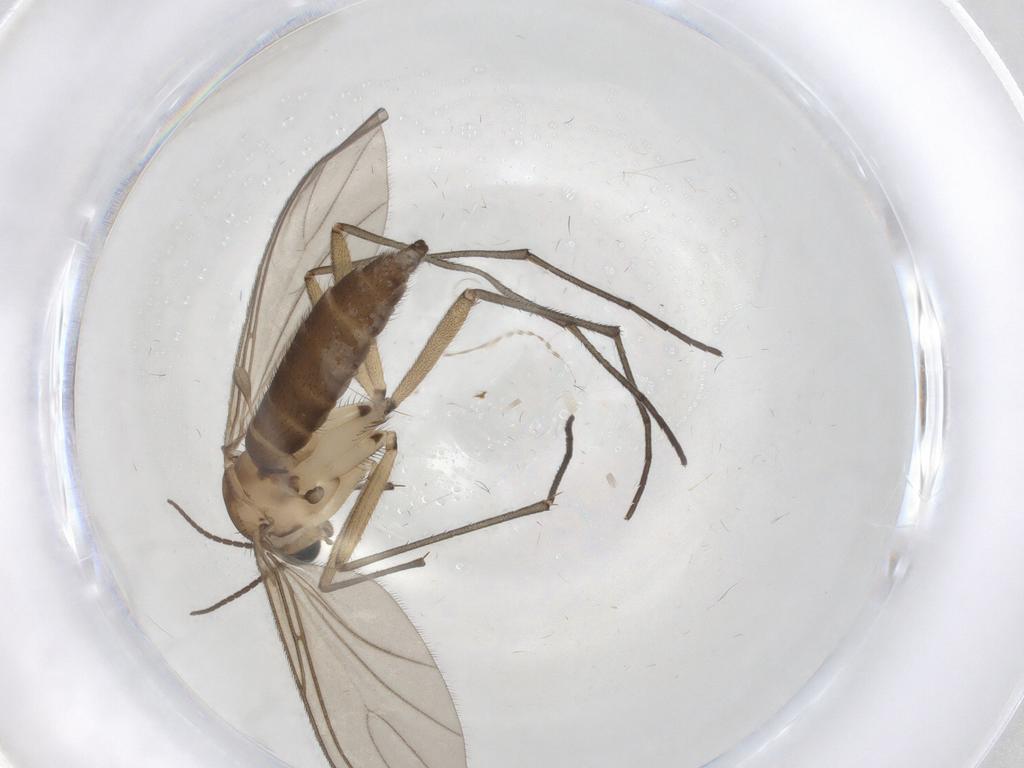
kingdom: Animalia
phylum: Arthropoda
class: Insecta
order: Diptera
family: Sciaridae
